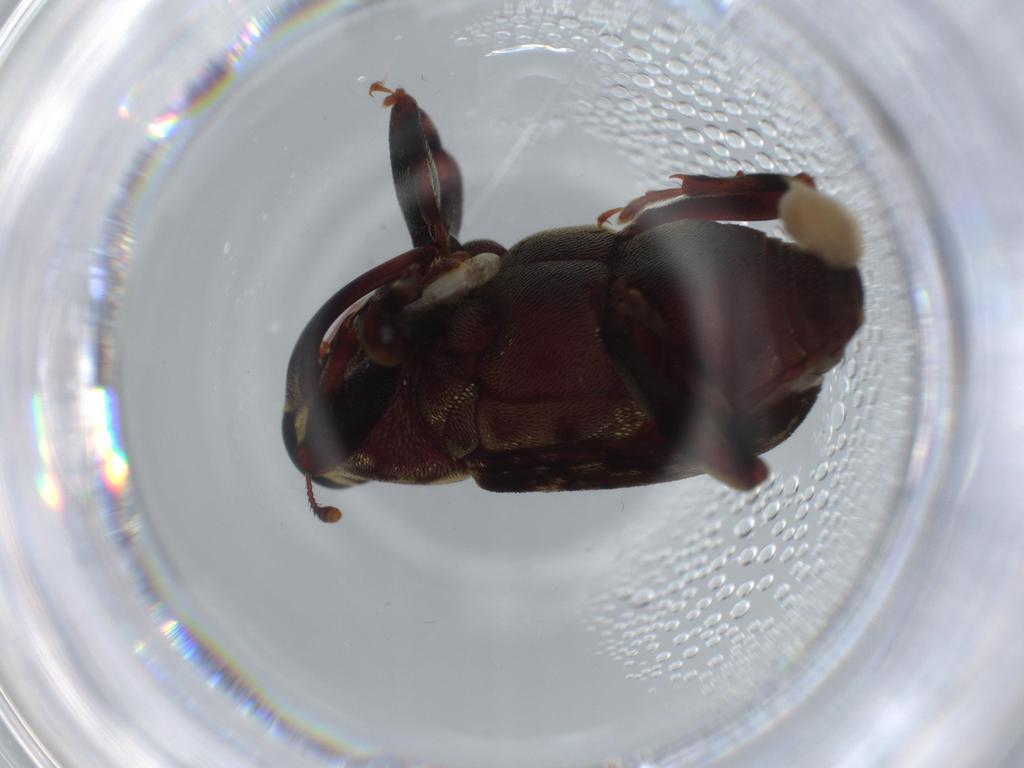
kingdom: Animalia
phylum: Arthropoda
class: Insecta
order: Coleoptera
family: Curculionidae
